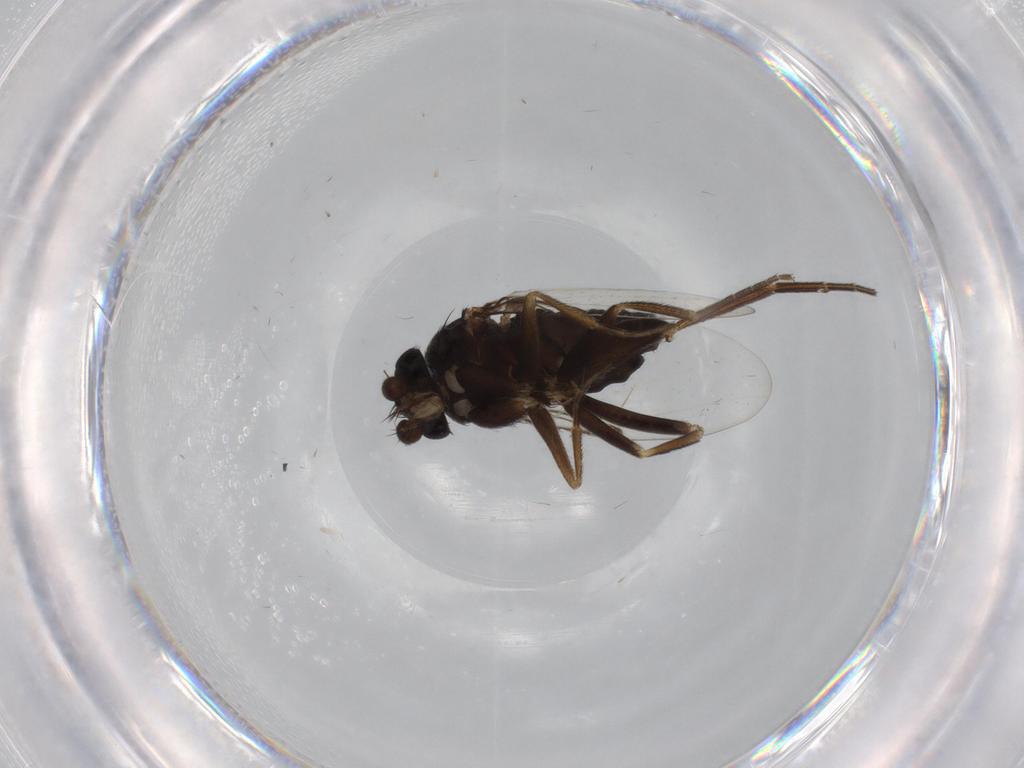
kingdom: Animalia
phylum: Arthropoda
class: Insecta
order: Diptera
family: Phoridae
